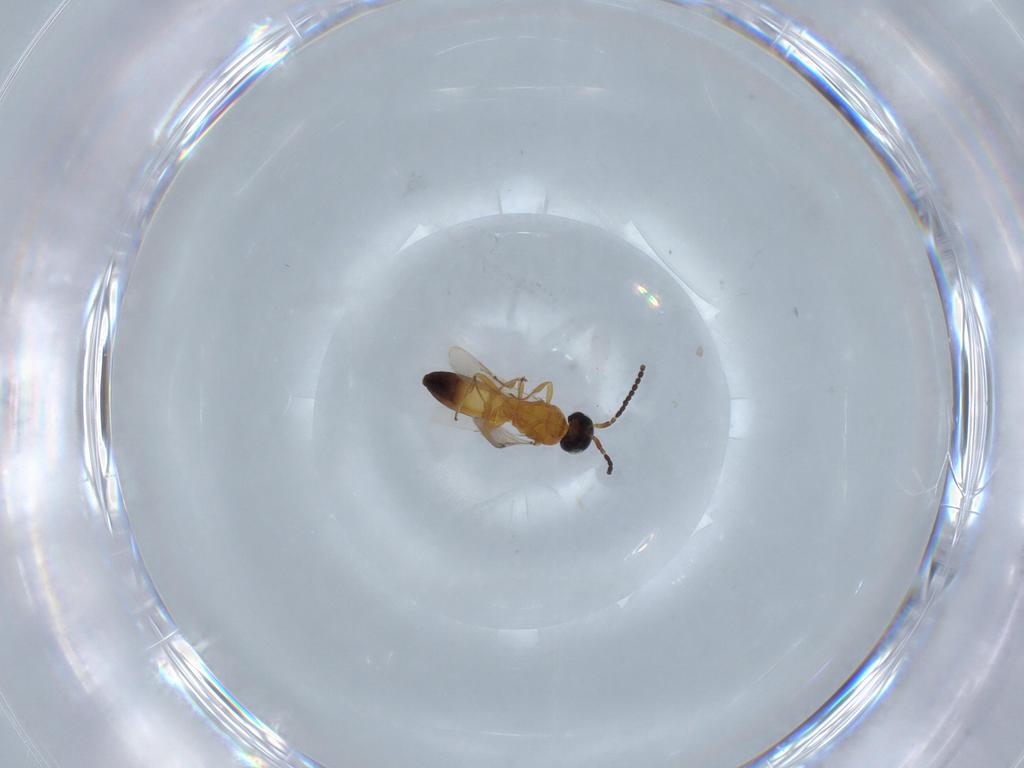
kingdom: Animalia
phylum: Arthropoda
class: Insecta
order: Hymenoptera
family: Scelionidae
